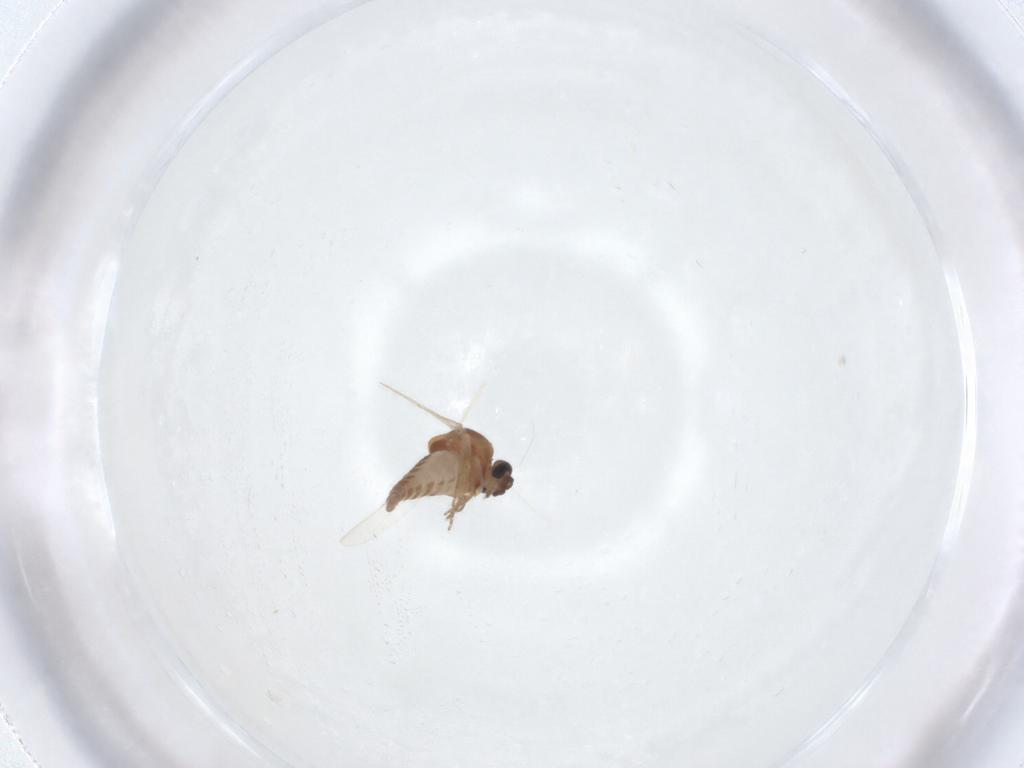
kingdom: Animalia
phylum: Arthropoda
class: Insecta
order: Diptera
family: Ceratopogonidae
